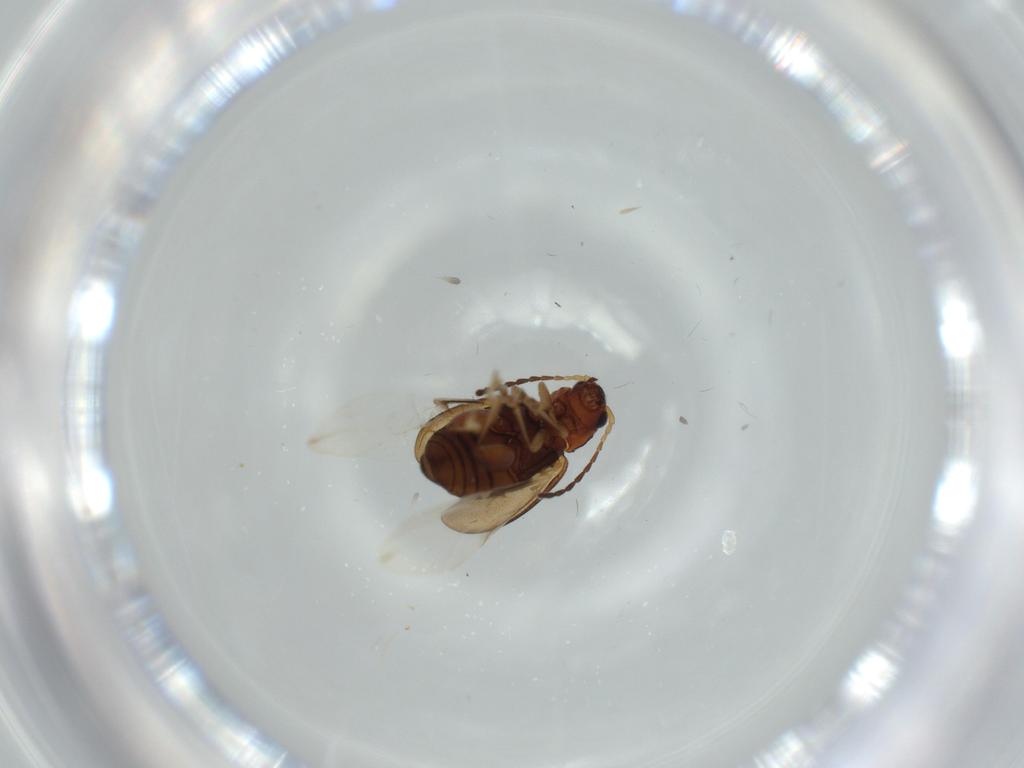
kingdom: Animalia
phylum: Arthropoda
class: Insecta
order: Coleoptera
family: Chrysomelidae
